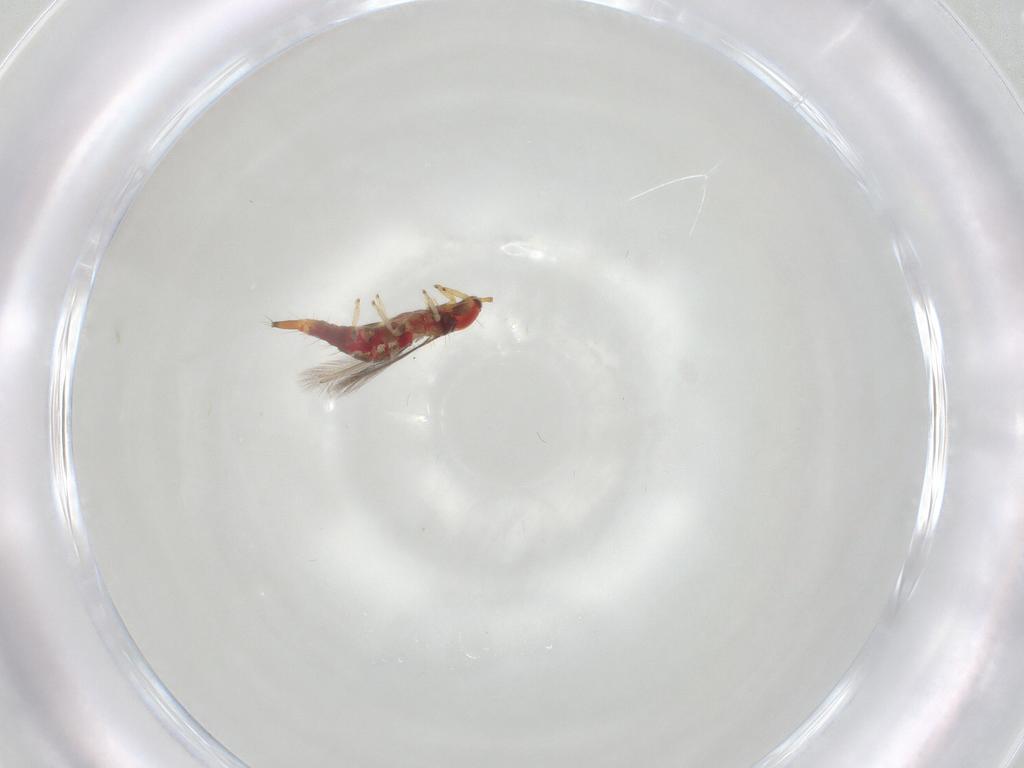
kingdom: Animalia
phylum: Arthropoda
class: Insecta
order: Thysanoptera
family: Phlaeothripidae
